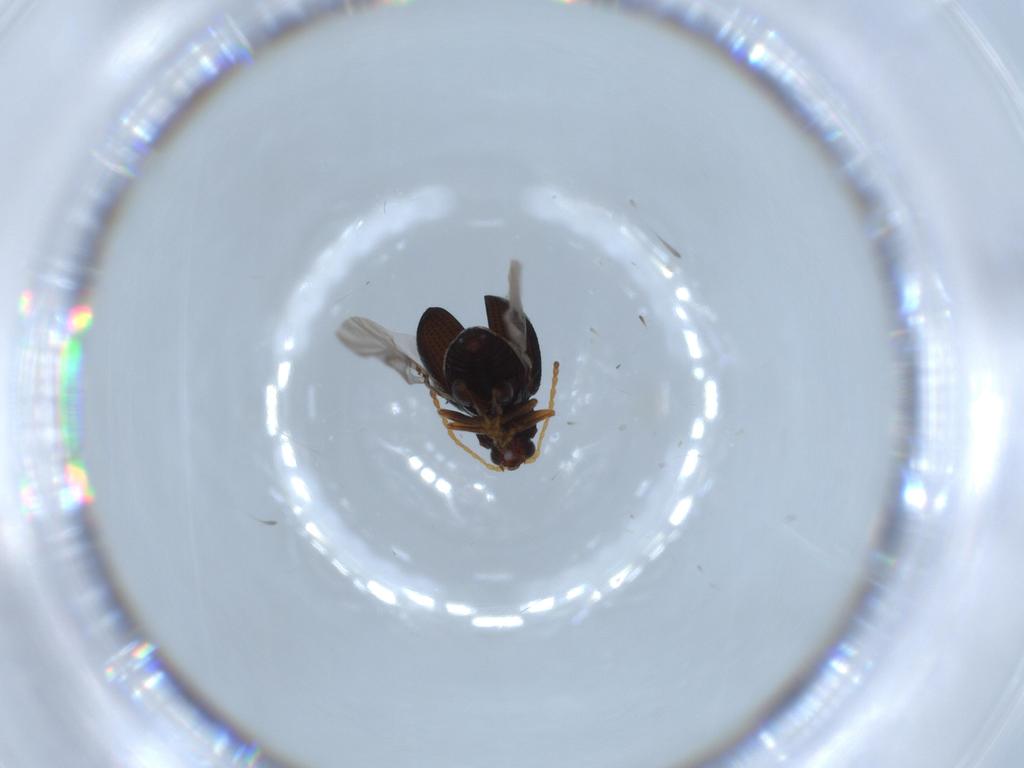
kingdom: Animalia
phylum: Arthropoda
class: Insecta
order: Coleoptera
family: Chrysomelidae
